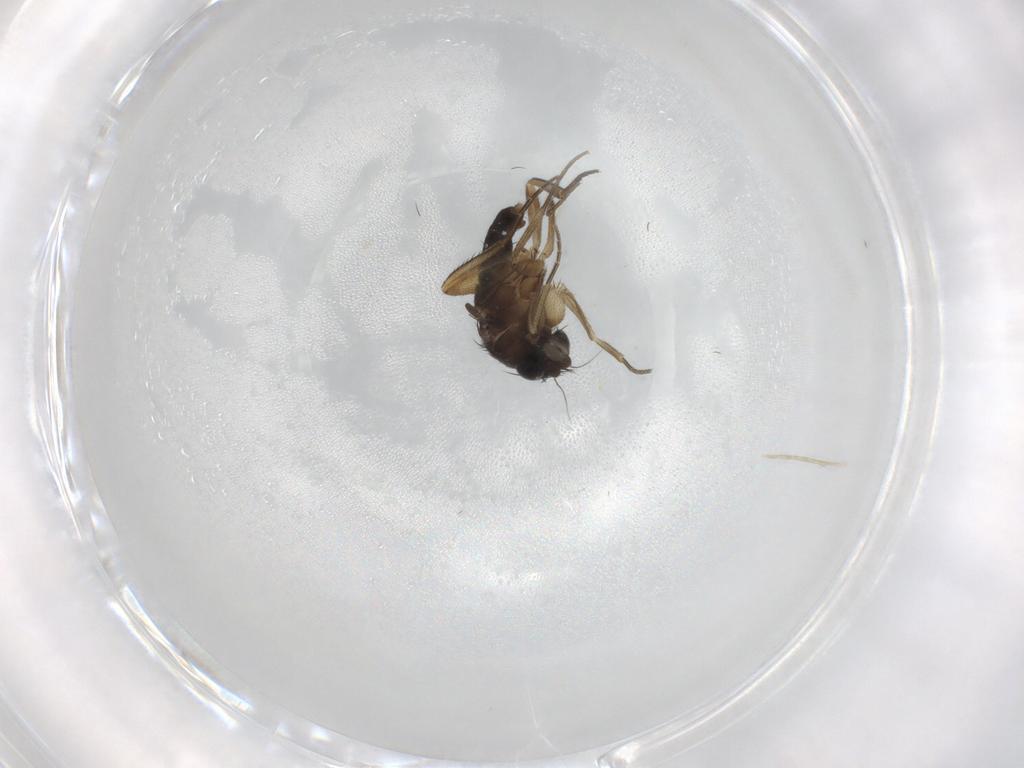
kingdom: Animalia
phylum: Arthropoda
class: Insecta
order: Diptera
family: Phoridae
